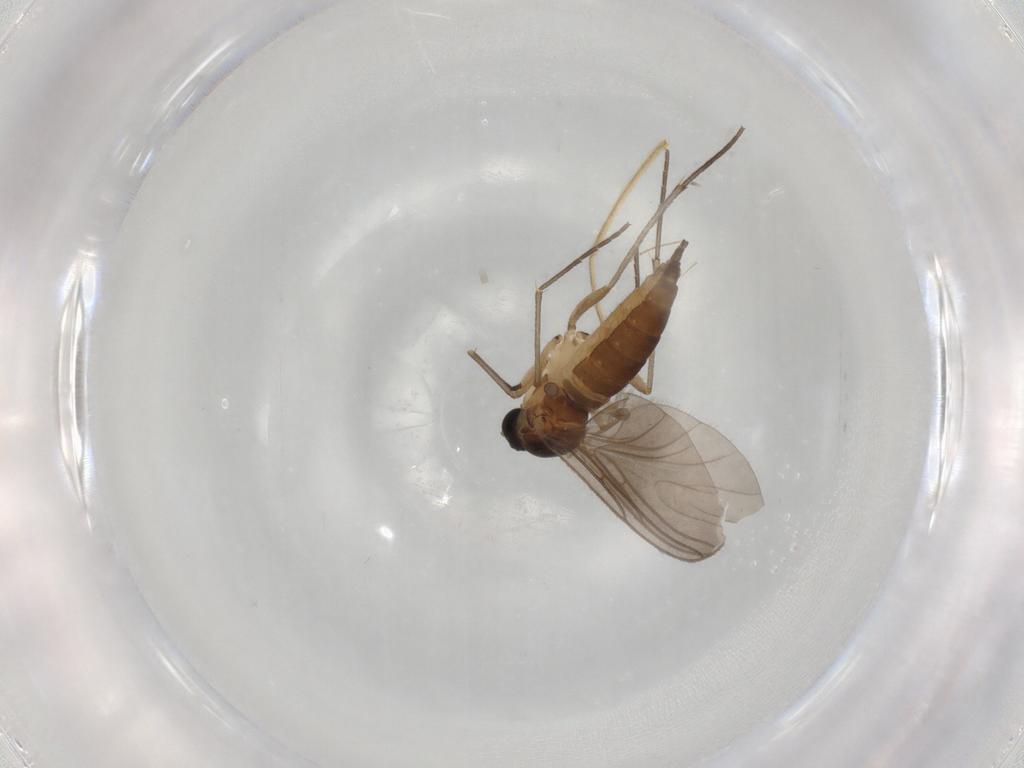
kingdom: Animalia
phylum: Arthropoda
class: Insecta
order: Diptera
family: Sciaridae
